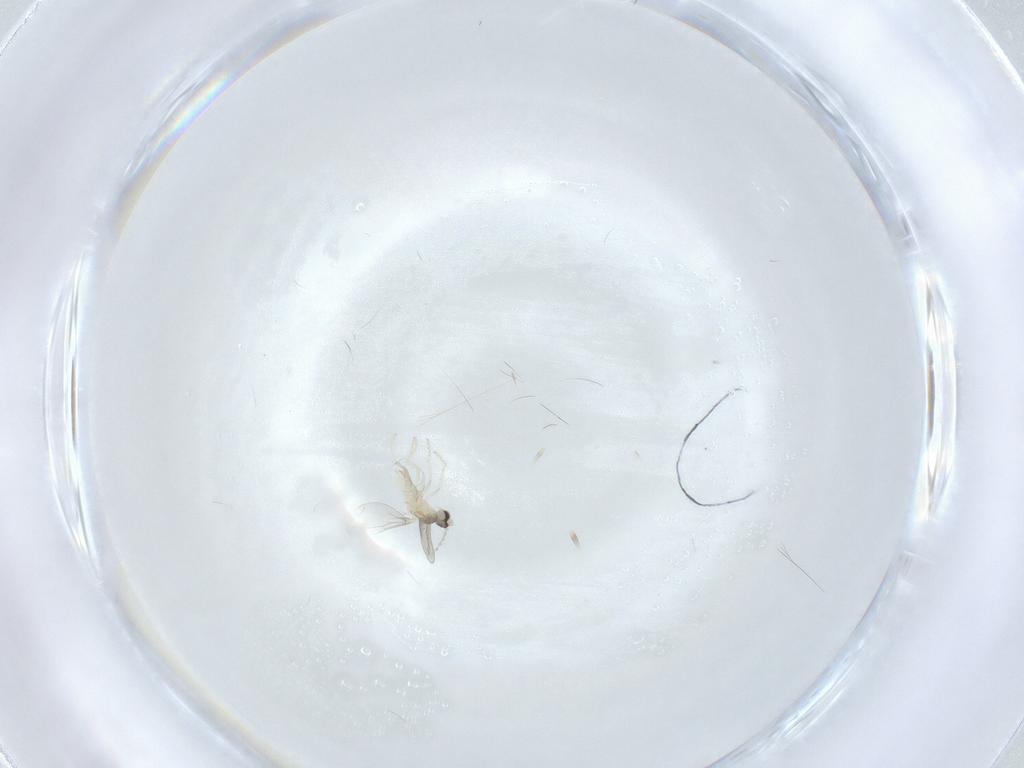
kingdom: Animalia
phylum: Arthropoda
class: Insecta
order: Diptera
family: Cecidomyiidae
